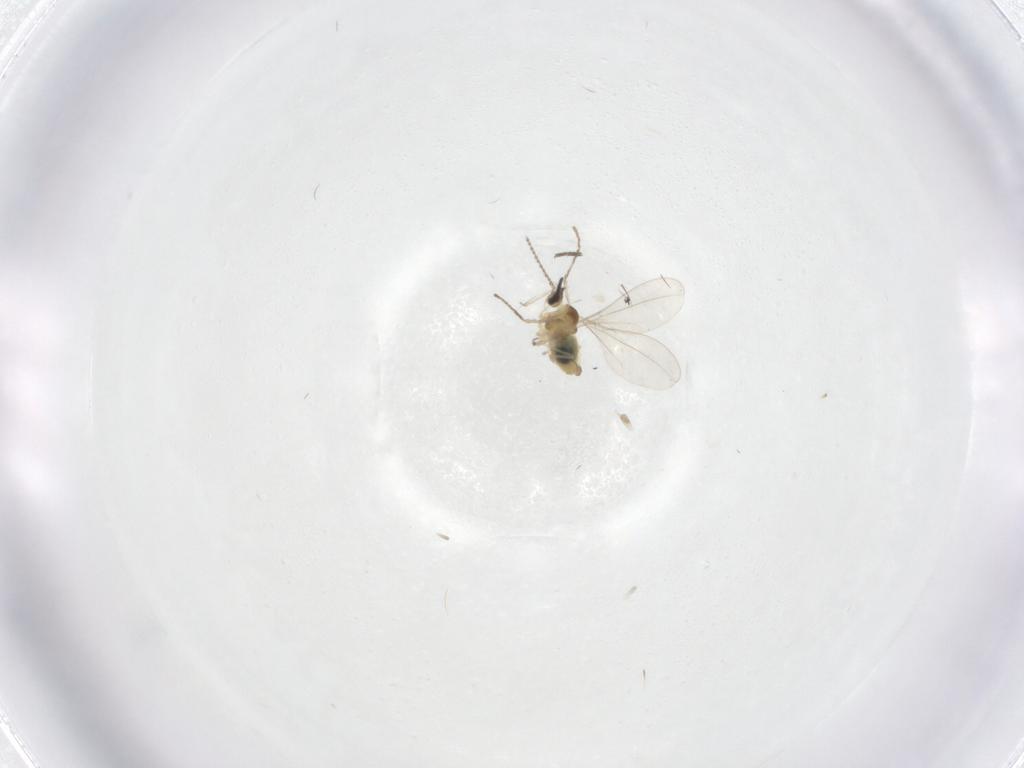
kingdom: Animalia
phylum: Arthropoda
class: Insecta
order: Diptera
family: Cecidomyiidae
